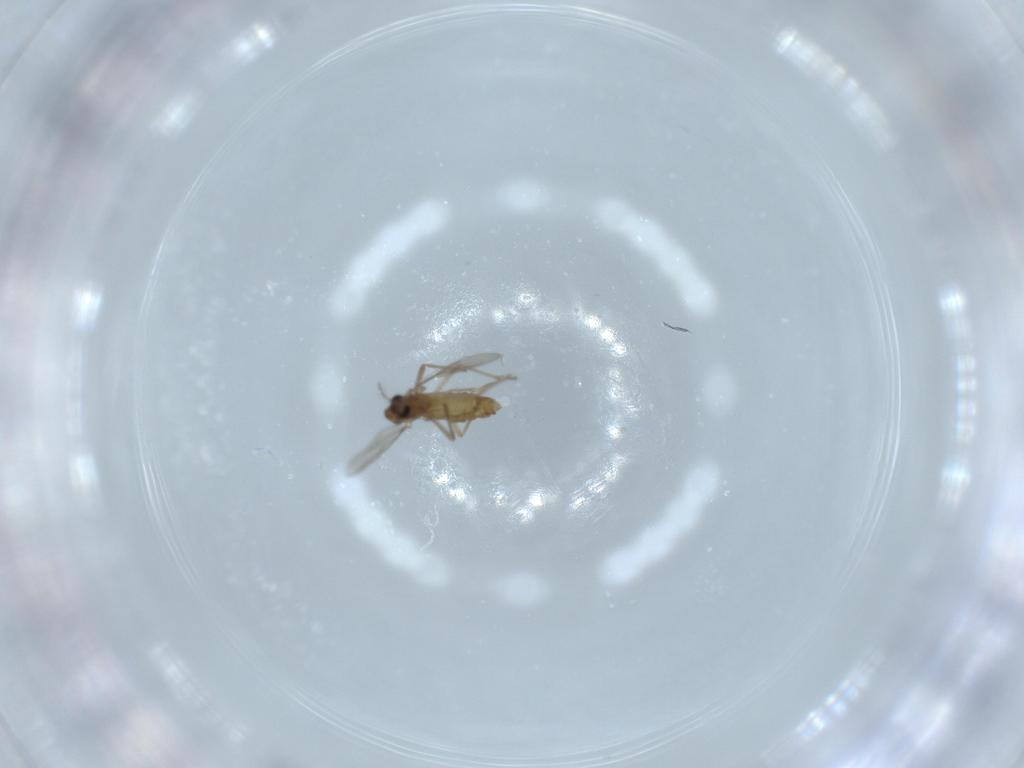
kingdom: Animalia
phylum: Arthropoda
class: Insecta
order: Diptera
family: Chironomidae
